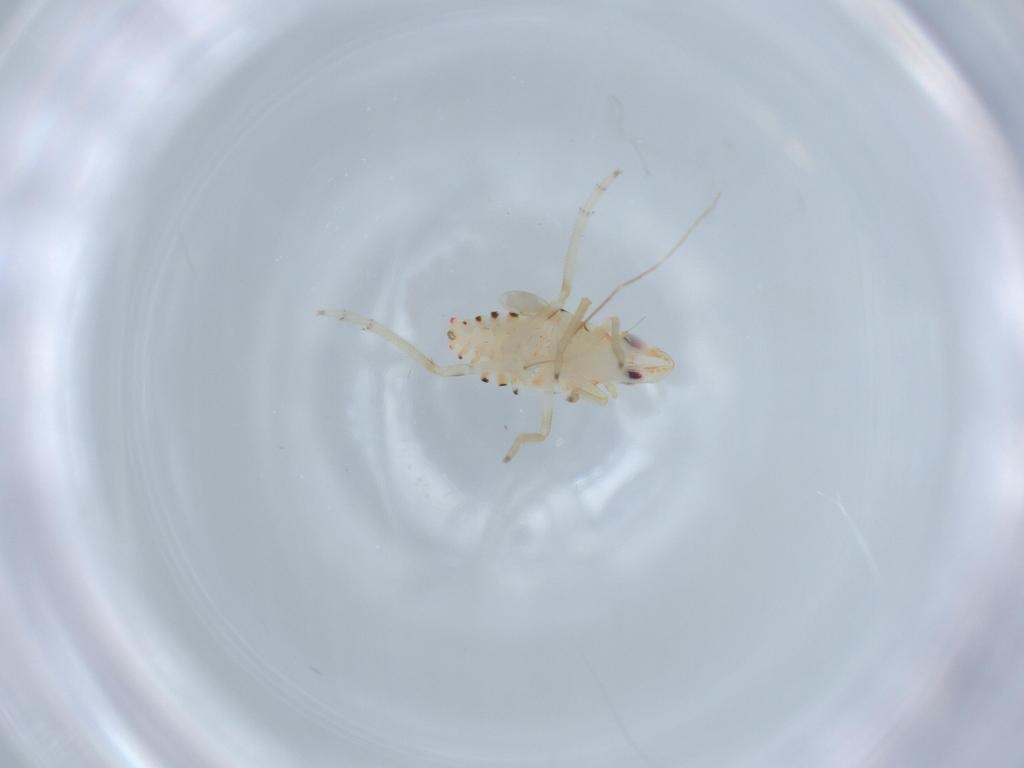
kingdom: Animalia
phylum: Arthropoda
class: Insecta
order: Hemiptera
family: Tropiduchidae
